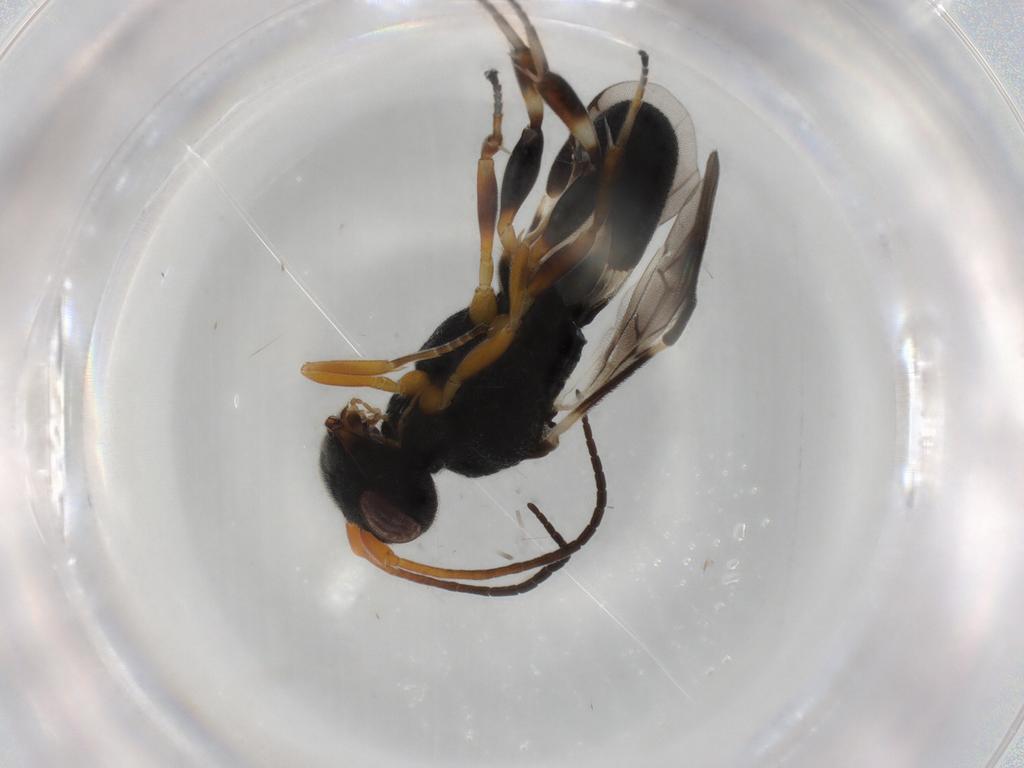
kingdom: Animalia
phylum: Arthropoda
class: Insecta
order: Hymenoptera
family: Braconidae
